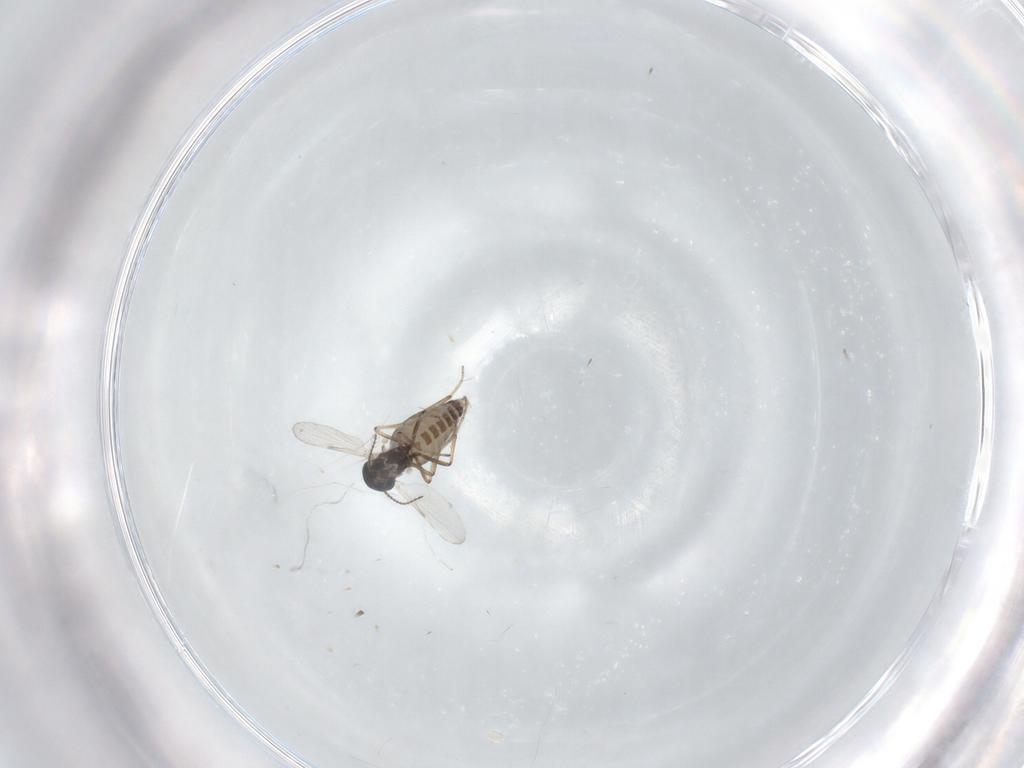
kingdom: Animalia
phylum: Arthropoda
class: Insecta
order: Diptera
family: Ceratopogonidae
